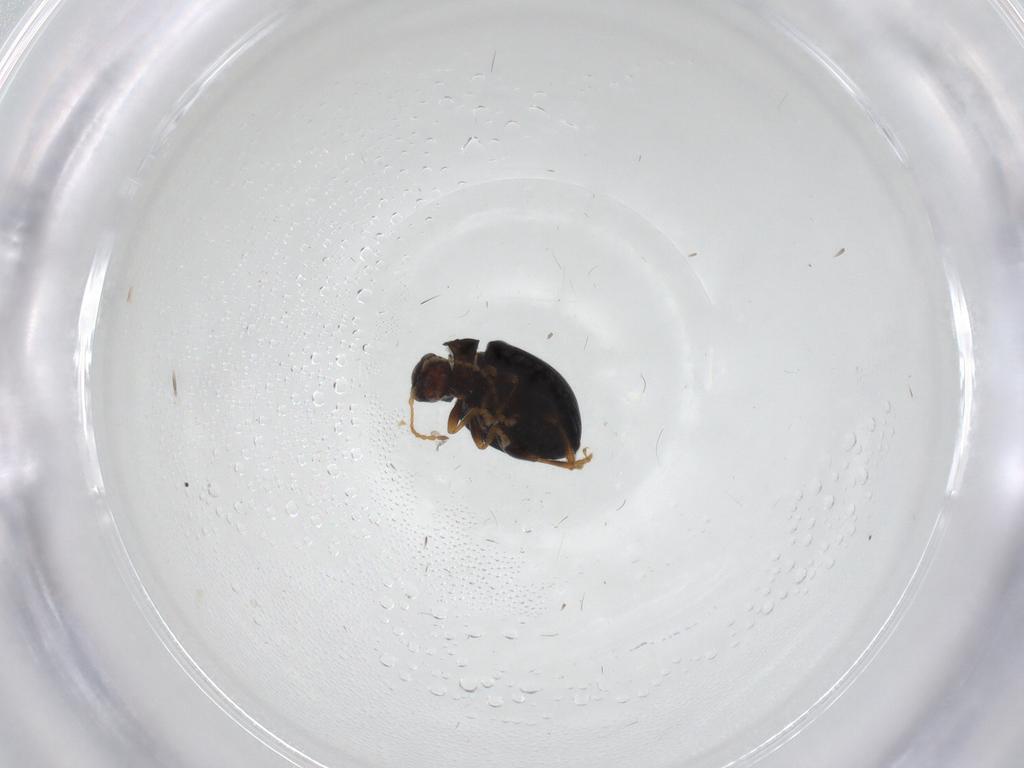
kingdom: Animalia
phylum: Arthropoda
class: Insecta
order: Coleoptera
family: Chrysomelidae
